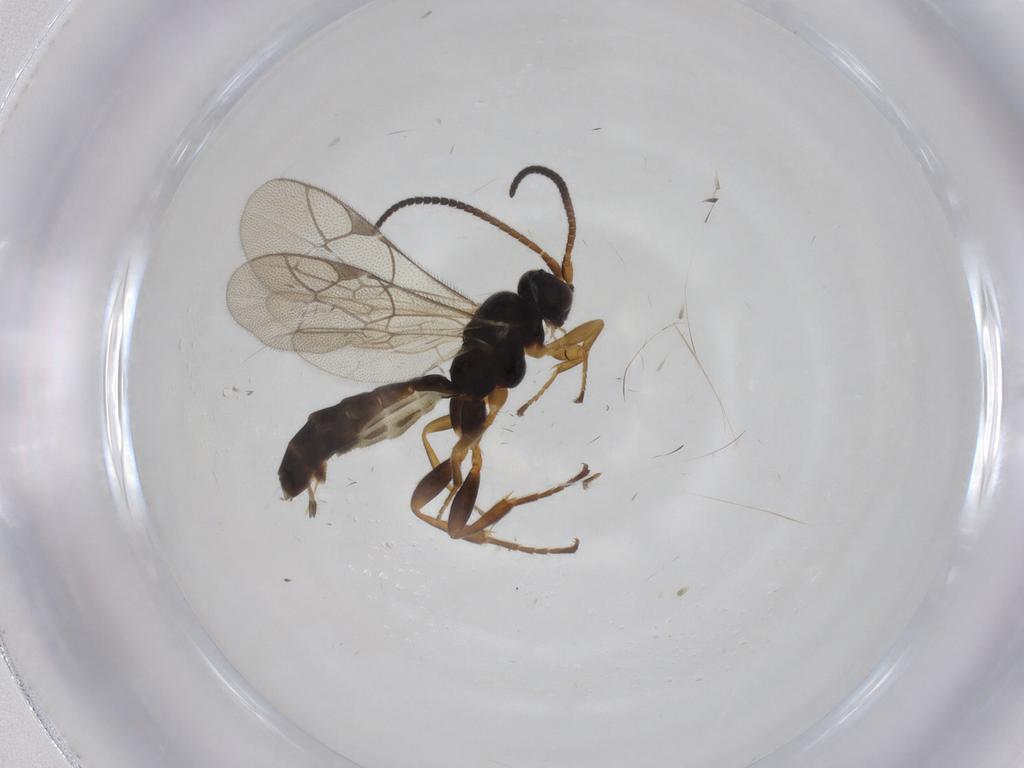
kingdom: Animalia
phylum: Arthropoda
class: Insecta
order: Hymenoptera
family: Ichneumonidae
